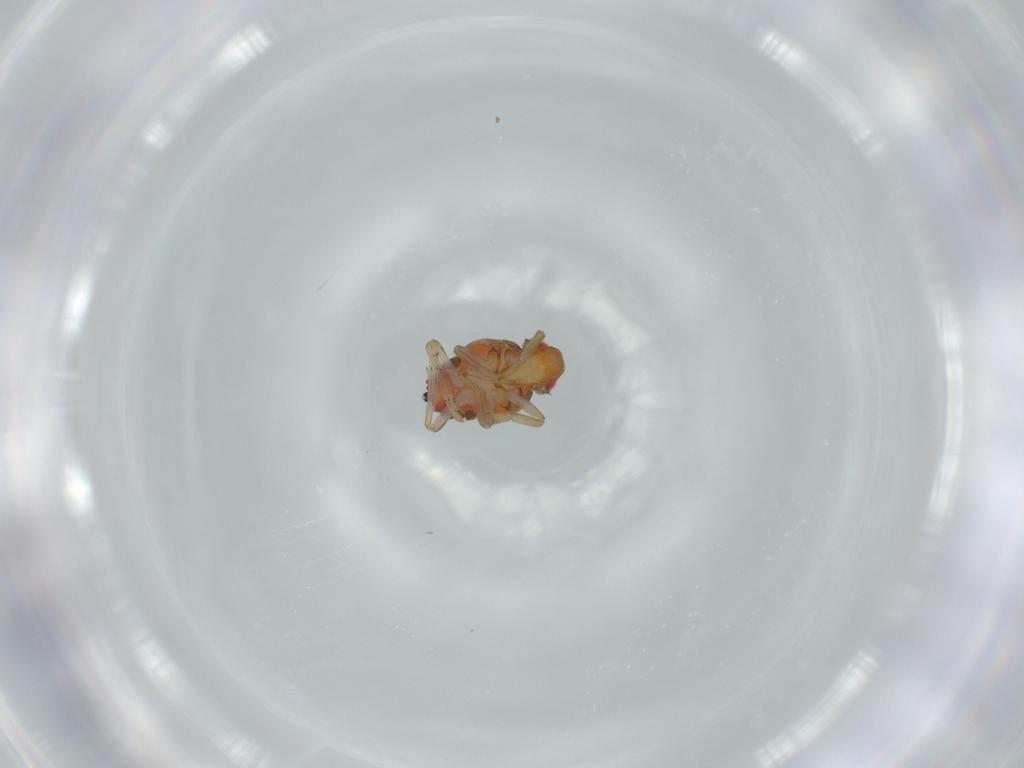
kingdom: Animalia
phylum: Arthropoda
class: Insecta
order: Hemiptera
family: Issidae
